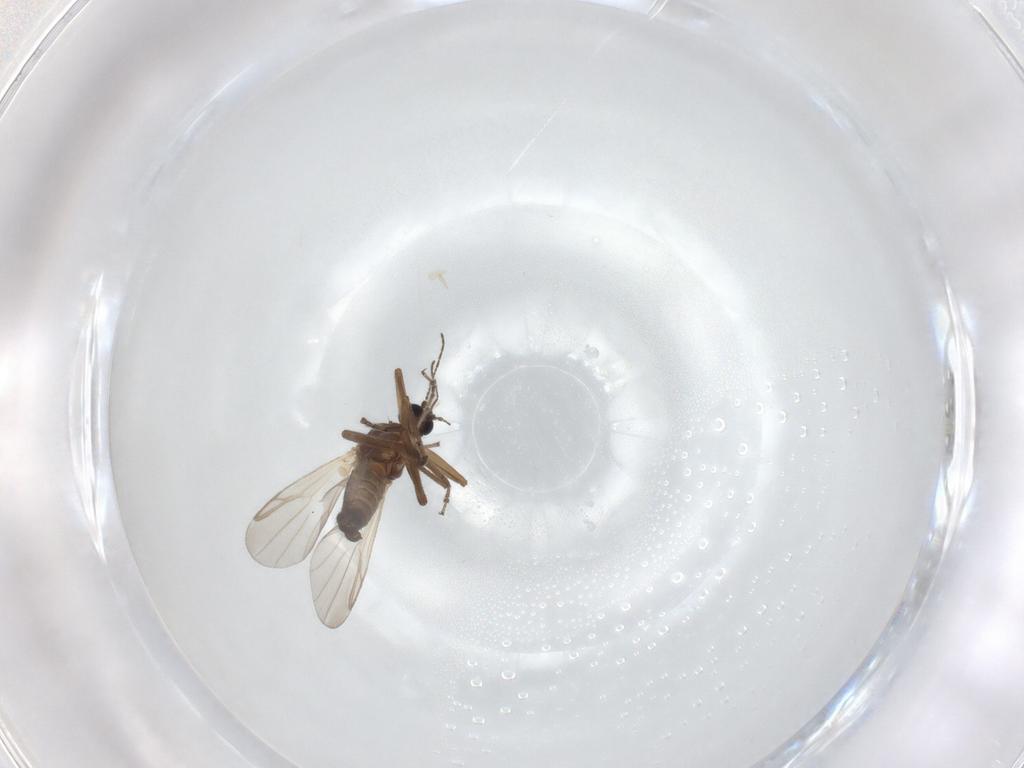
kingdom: Animalia
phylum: Arthropoda
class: Insecta
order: Diptera
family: Ceratopogonidae
